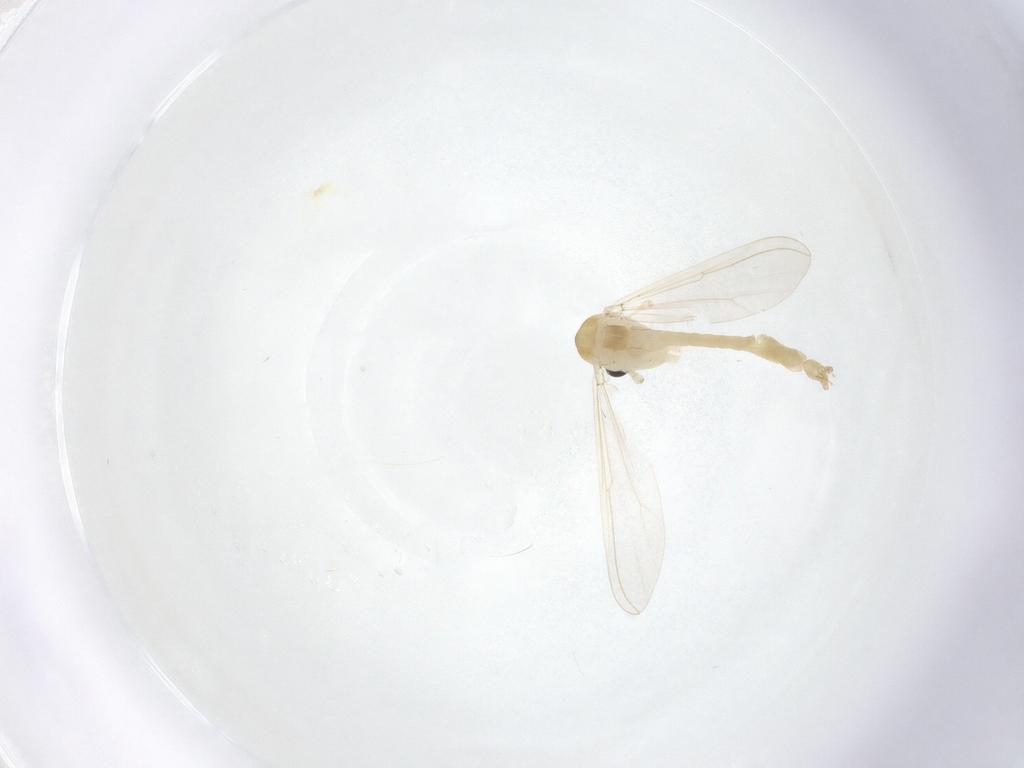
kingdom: Animalia
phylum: Arthropoda
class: Insecta
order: Diptera
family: Chironomidae
